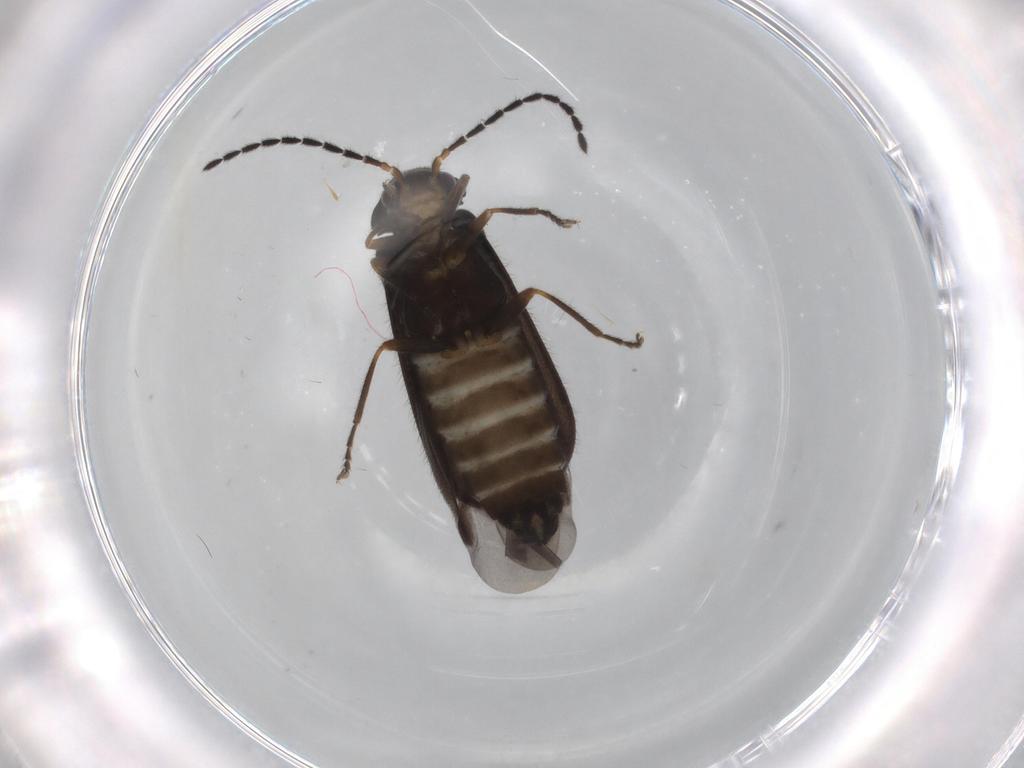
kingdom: Animalia
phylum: Arthropoda
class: Insecta
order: Coleoptera
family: Cantharidae
